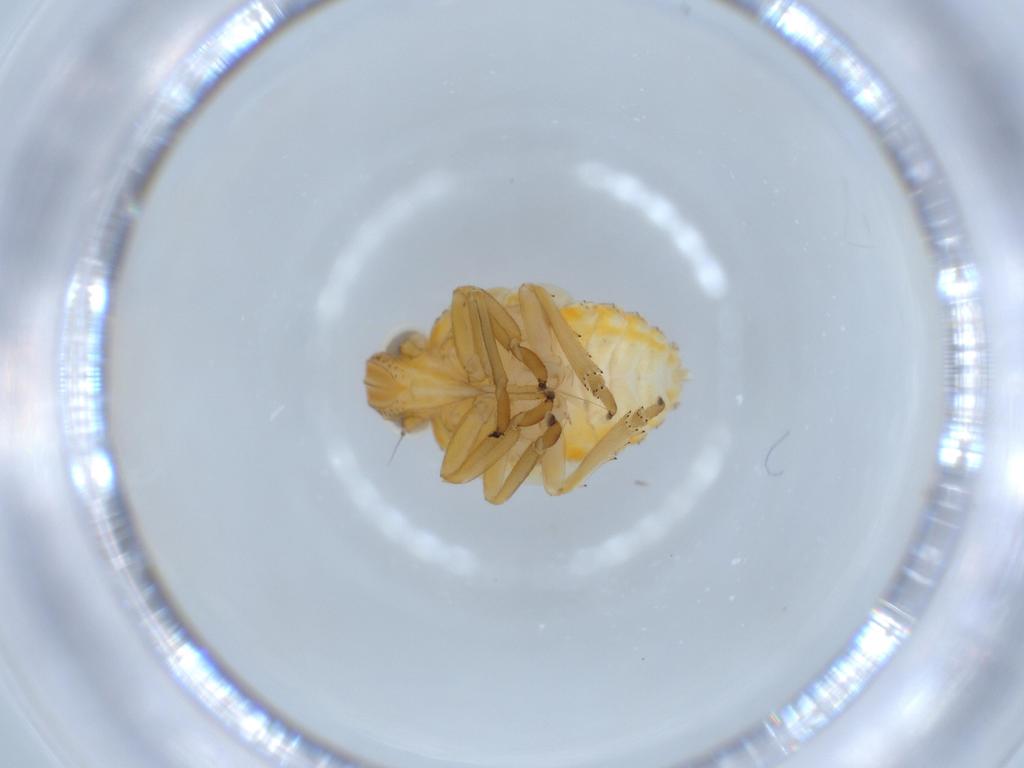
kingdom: Animalia
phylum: Arthropoda
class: Insecta
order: Hemiptera
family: Issidae
